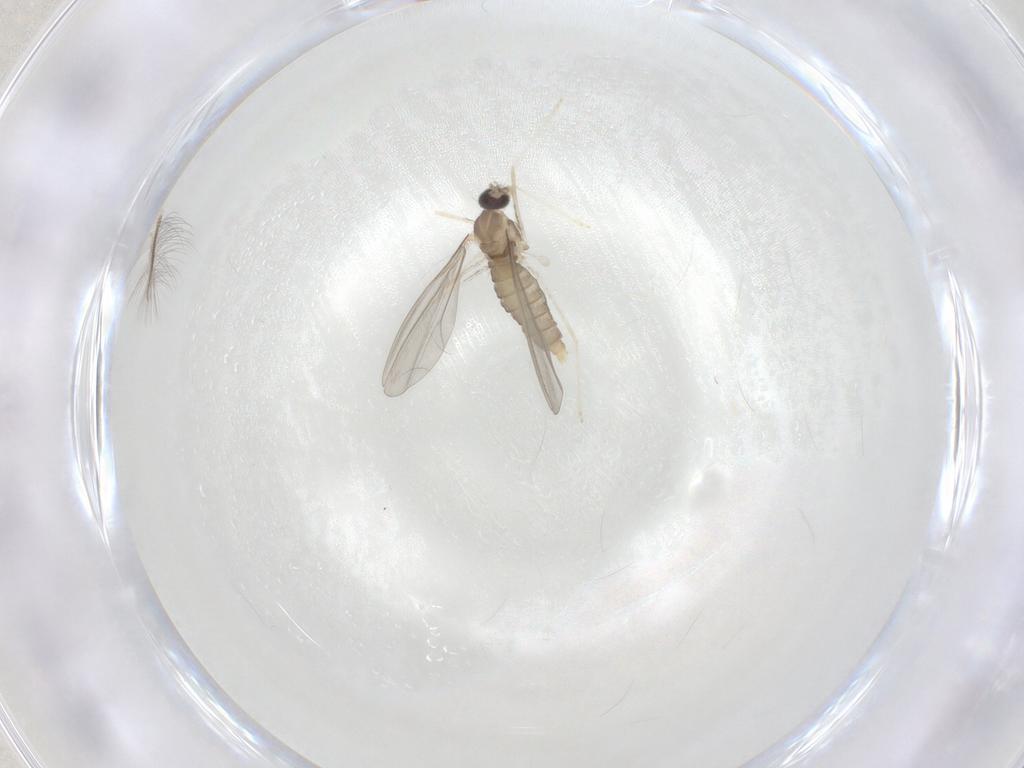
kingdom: Animalia
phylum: Arthropoda
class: Insecta
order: Diptera
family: Cecidomyiidae
